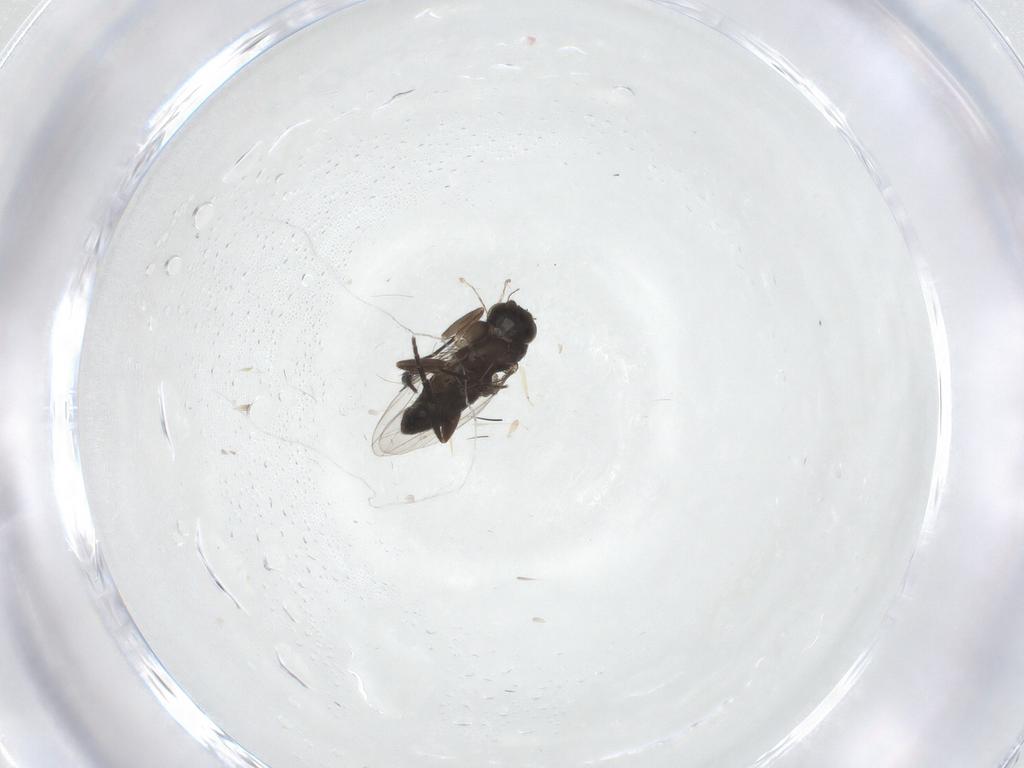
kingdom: Animalia
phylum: Arthropoda
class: Insecta
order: Diptera
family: Phoridae
